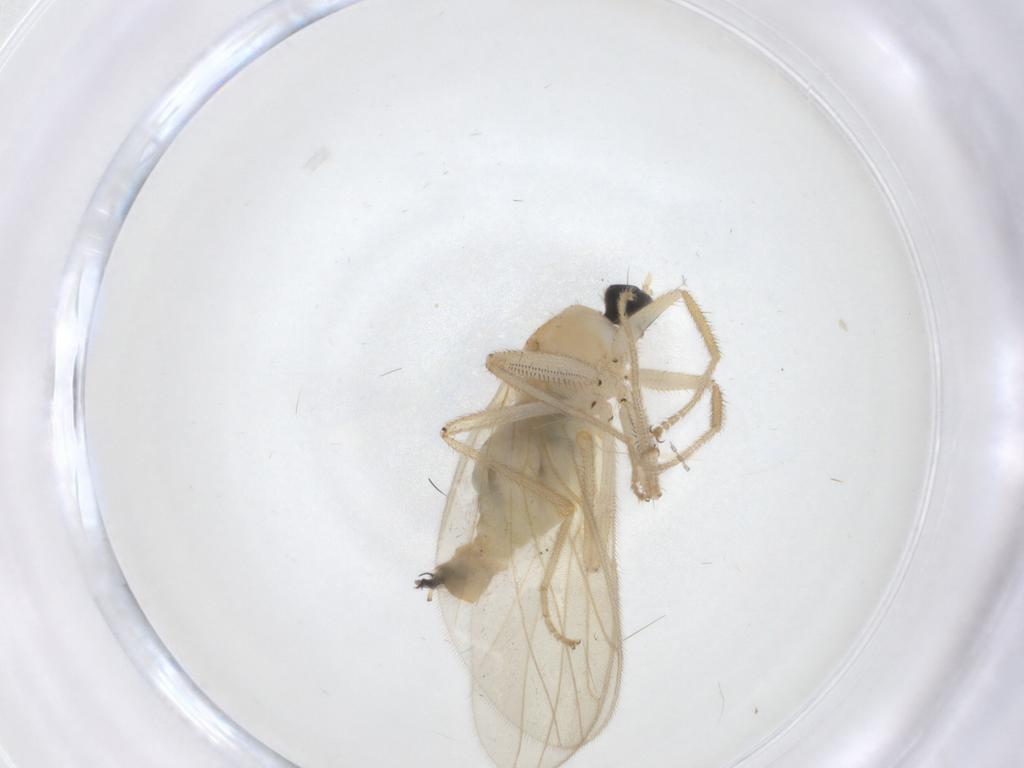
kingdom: Animalia
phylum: Arthropoda
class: Insecta
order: Diptera
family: Hybotidae
